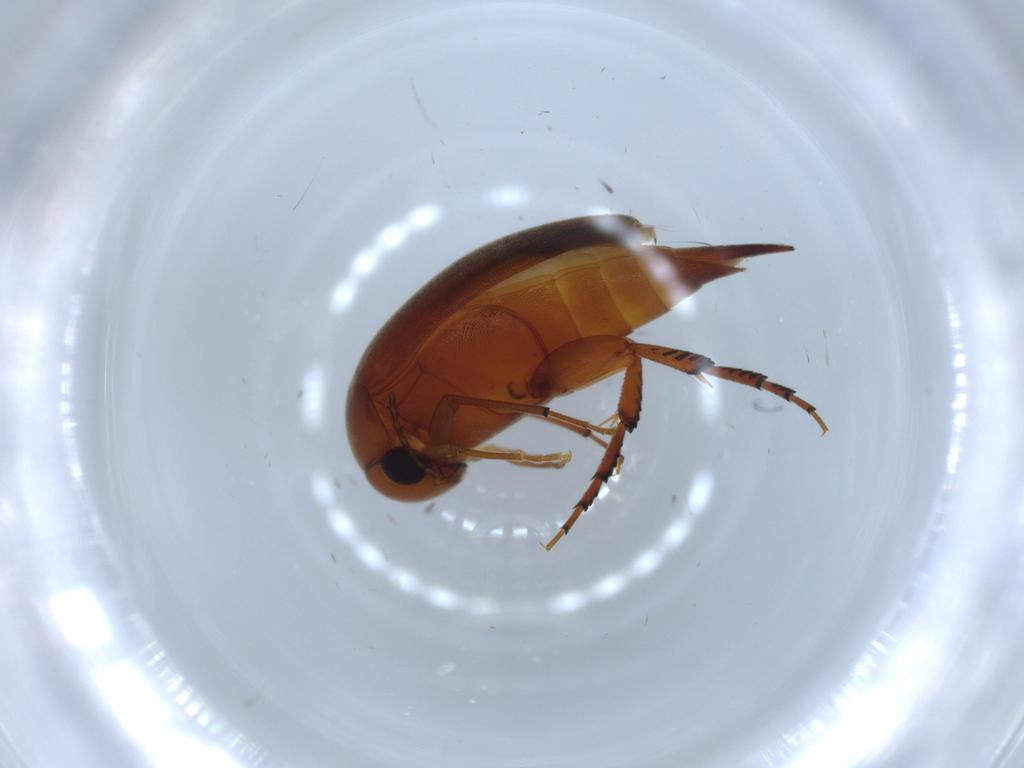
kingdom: Animalia
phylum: Arthropoda
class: Insecta
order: Coleoptera
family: Mordellidae
